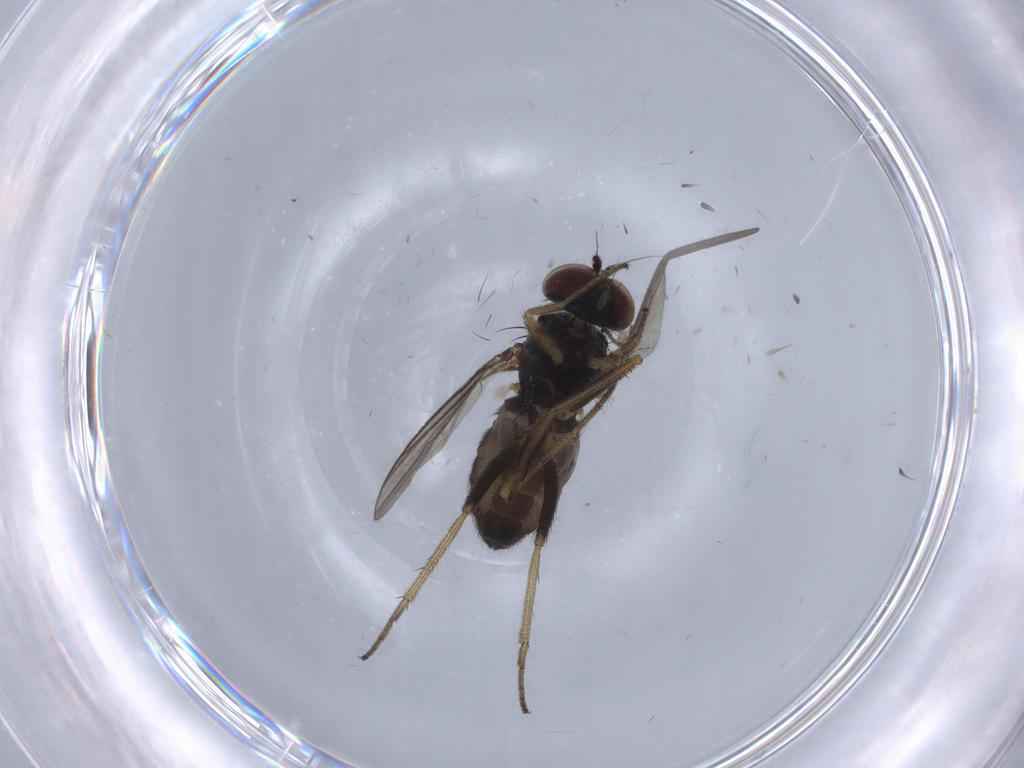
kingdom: Animalia
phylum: Arthropoda
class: Insecta
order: Diptera
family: Dolichopodidae
